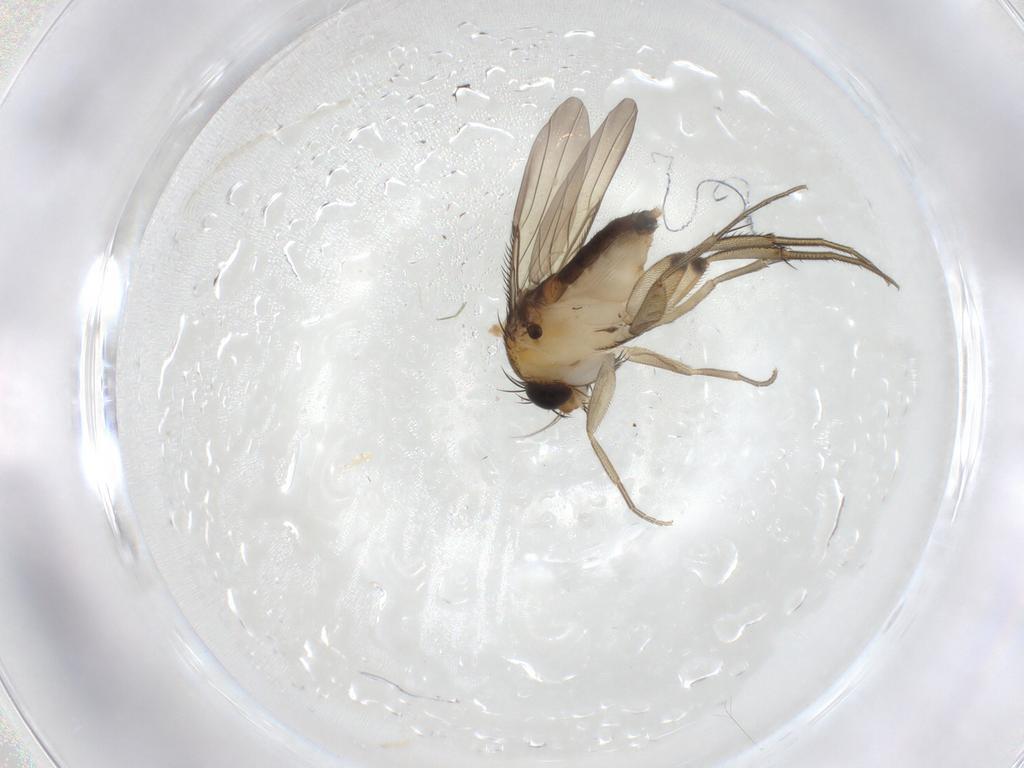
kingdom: Animalia
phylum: Arthropoda
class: Insecta
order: Diptera
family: Phoridae
